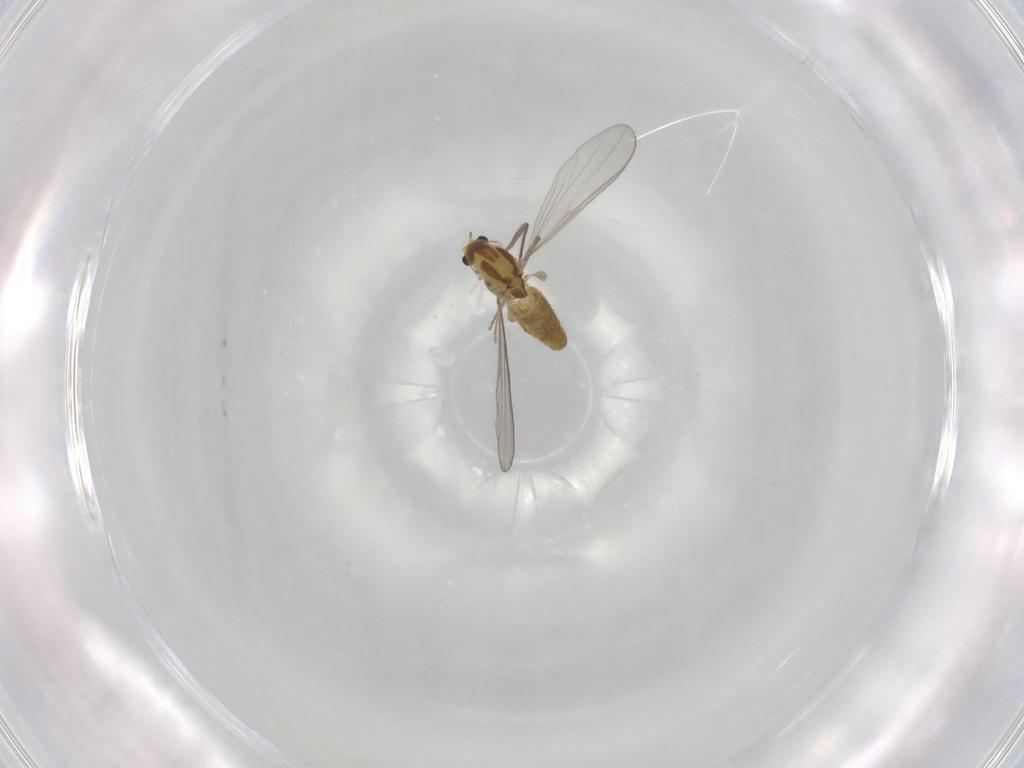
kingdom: Animalia
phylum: Arthropoda
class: Insecta
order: Diptera
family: Chironomidae
